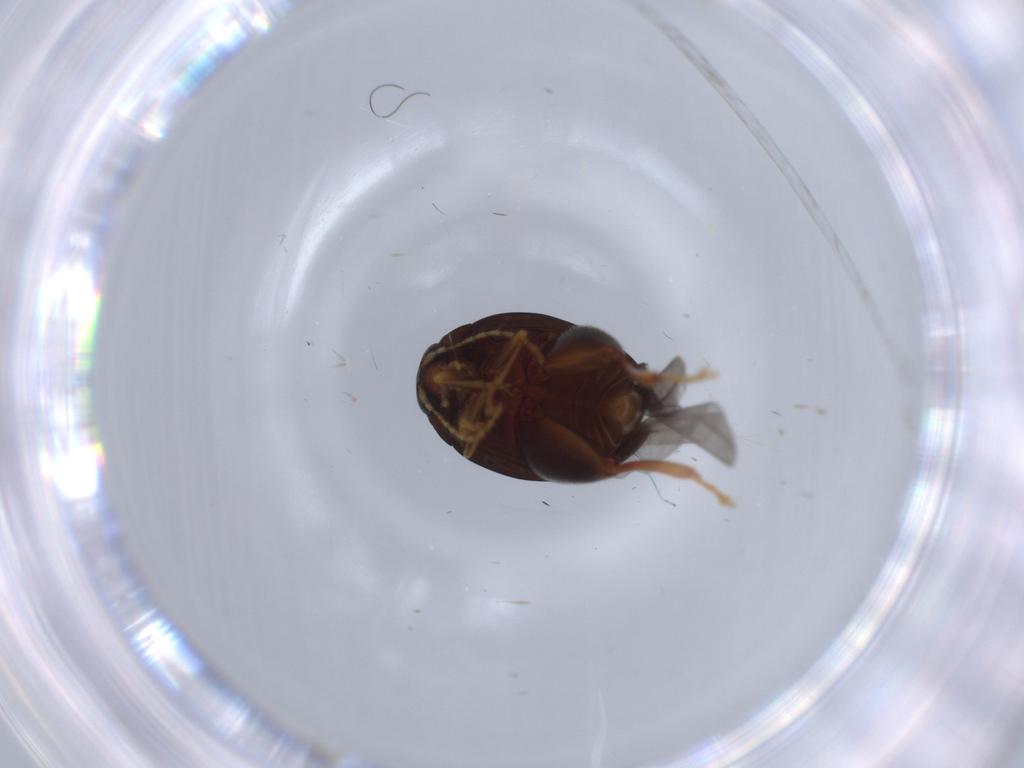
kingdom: Animalia
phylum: Arthropoda
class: Insecta
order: Coleoptera
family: Chrysomelidae
